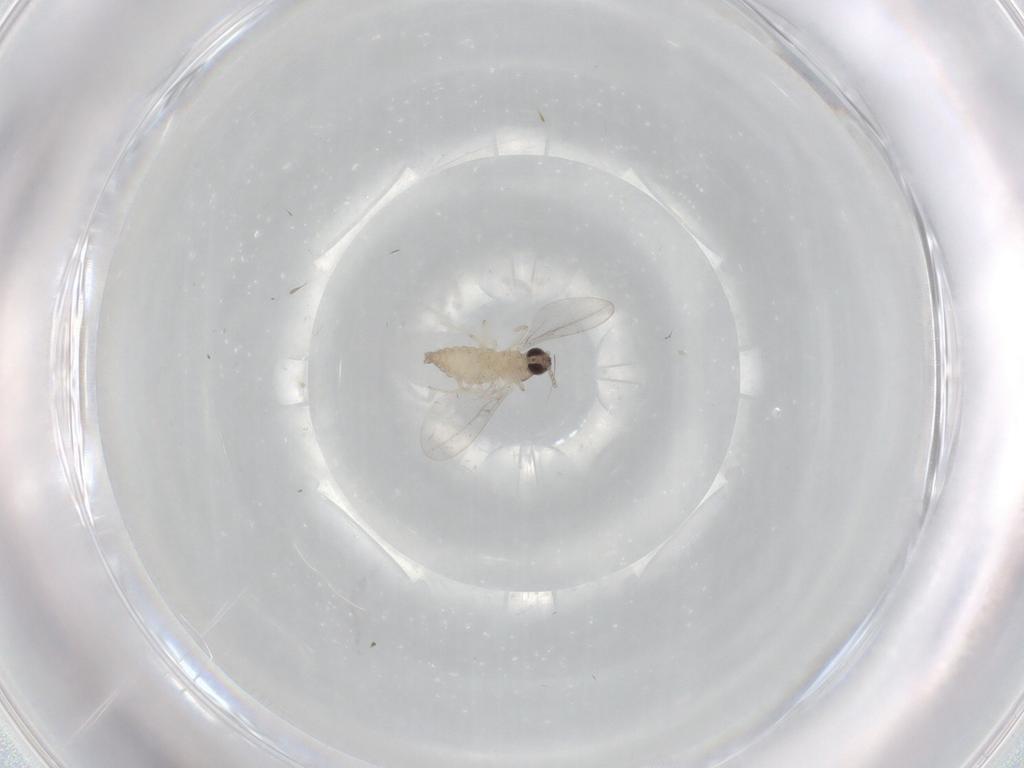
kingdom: Animalia
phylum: Arthropoda
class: Insecta
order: Diptera
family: Cecidomyiidae
